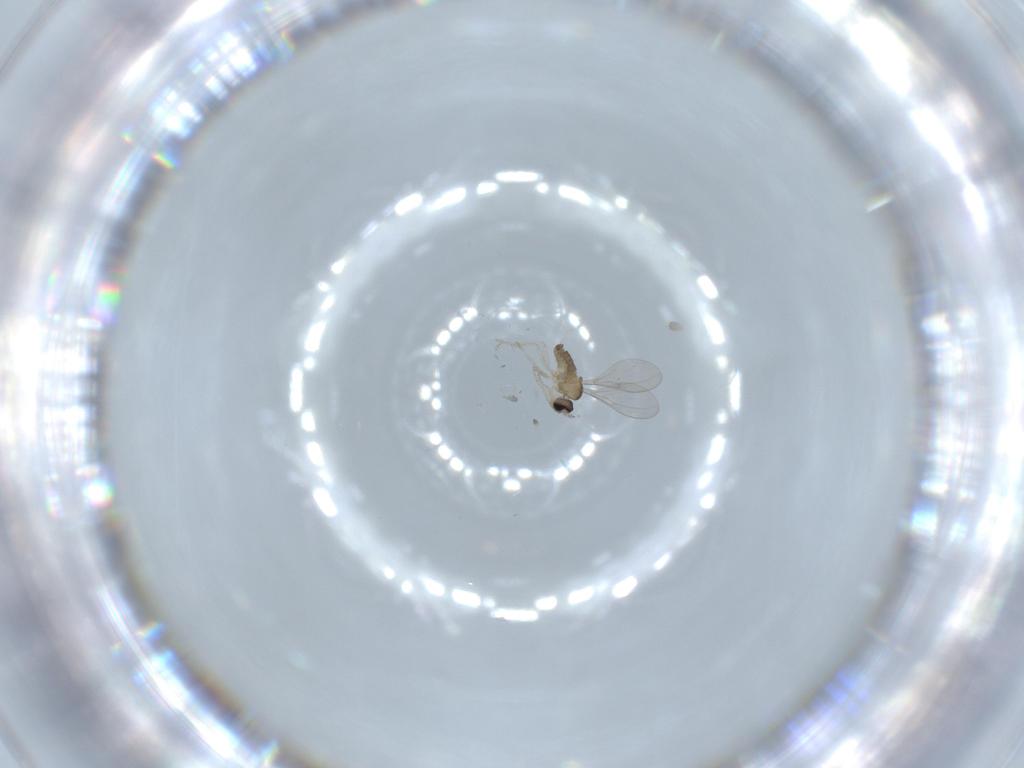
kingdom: Animalia
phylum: Arthropoda
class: Insecta
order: Diptera
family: Cecidomyiidae
